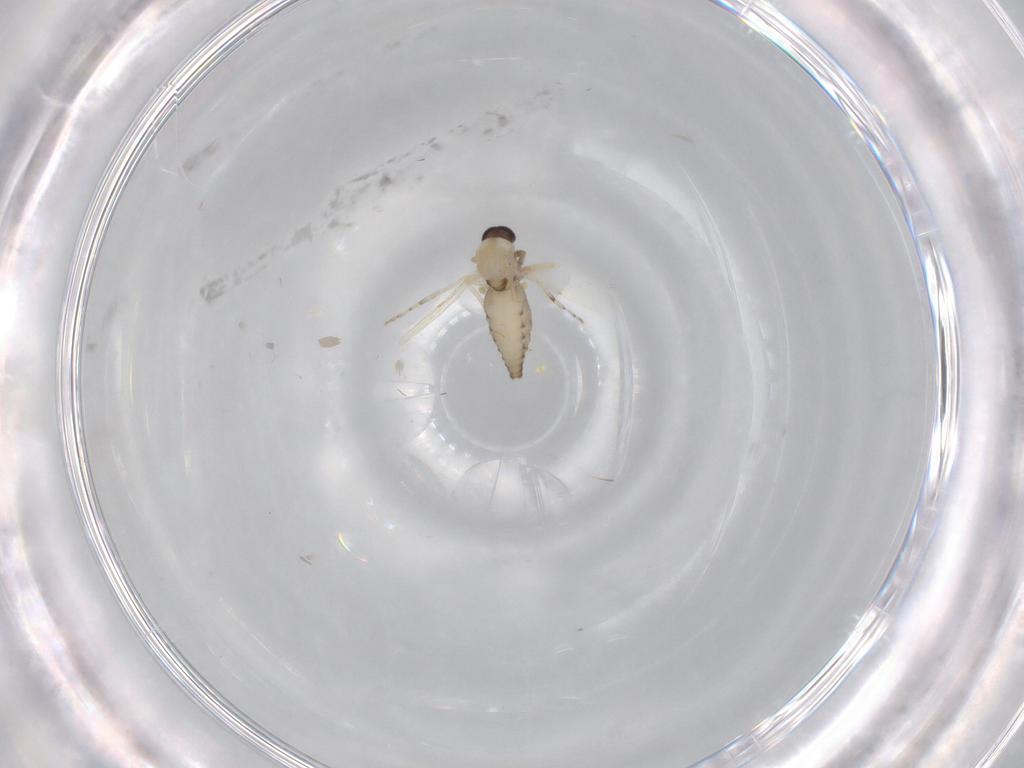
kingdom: Animalia
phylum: Arthropoda
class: Insecta
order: Diptera
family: Ceratopogonidae
